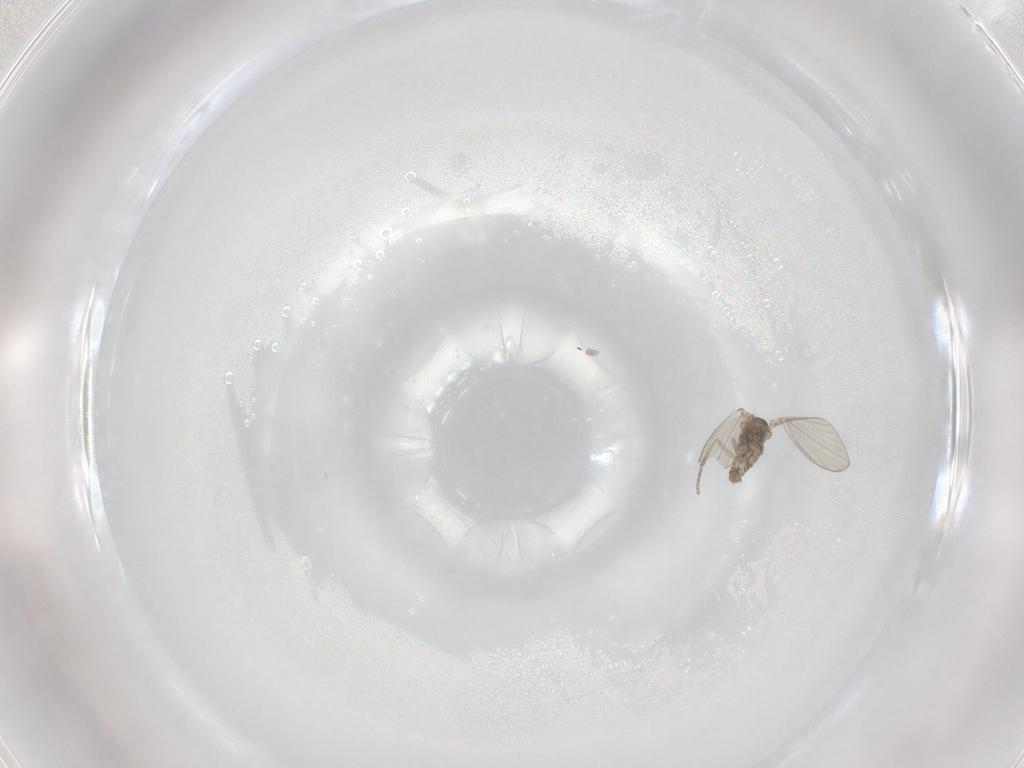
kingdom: Animalia
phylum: Arthropoda
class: Insecta
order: Diptera
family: Psychodidae
